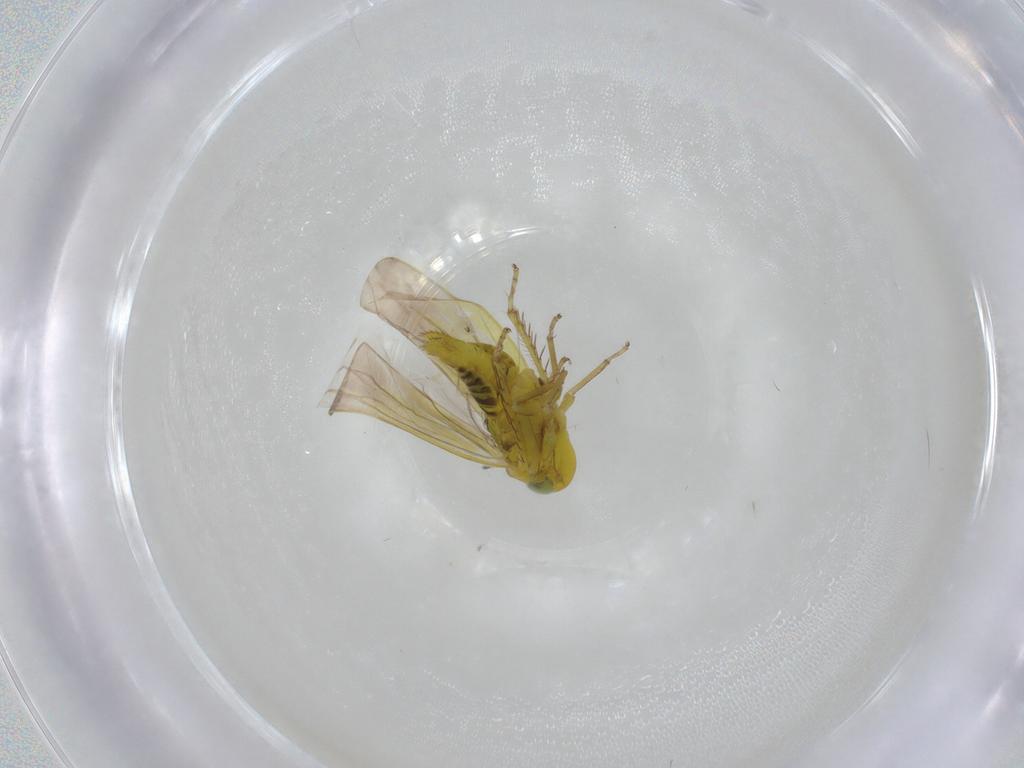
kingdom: Animalia
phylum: Arthropoda
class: Insecta
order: Hemiptera
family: Cicadellidae
